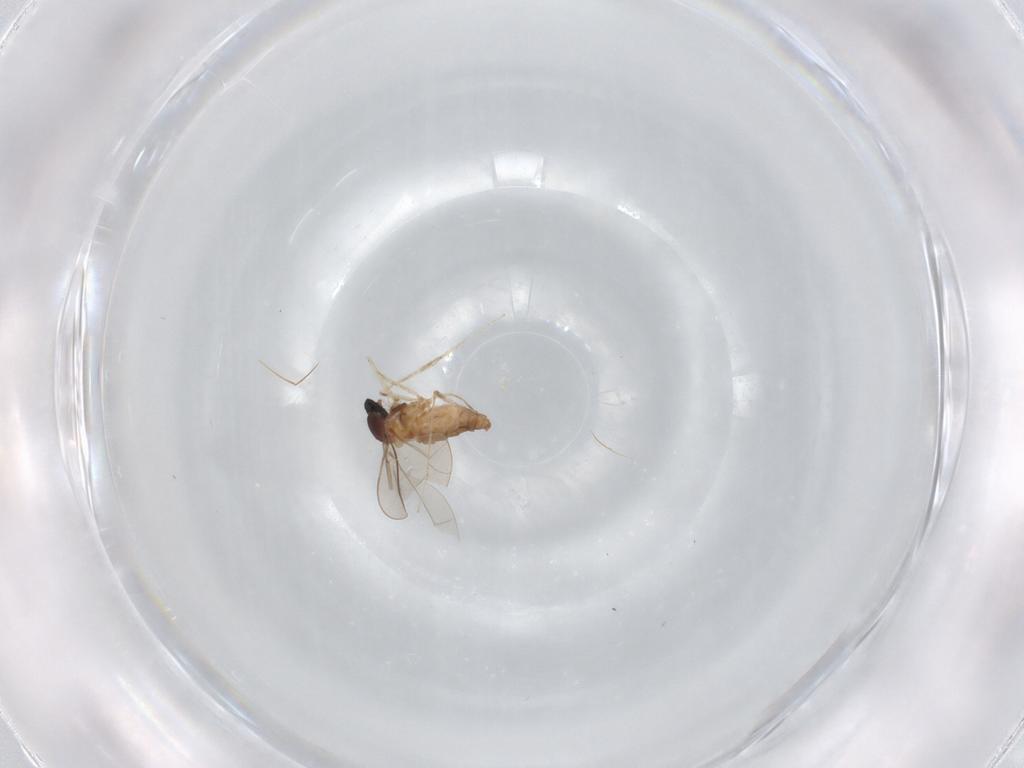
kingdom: Animalia
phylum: Arthropoda
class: Insecta
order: Diptera
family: Cecidomyiidae
